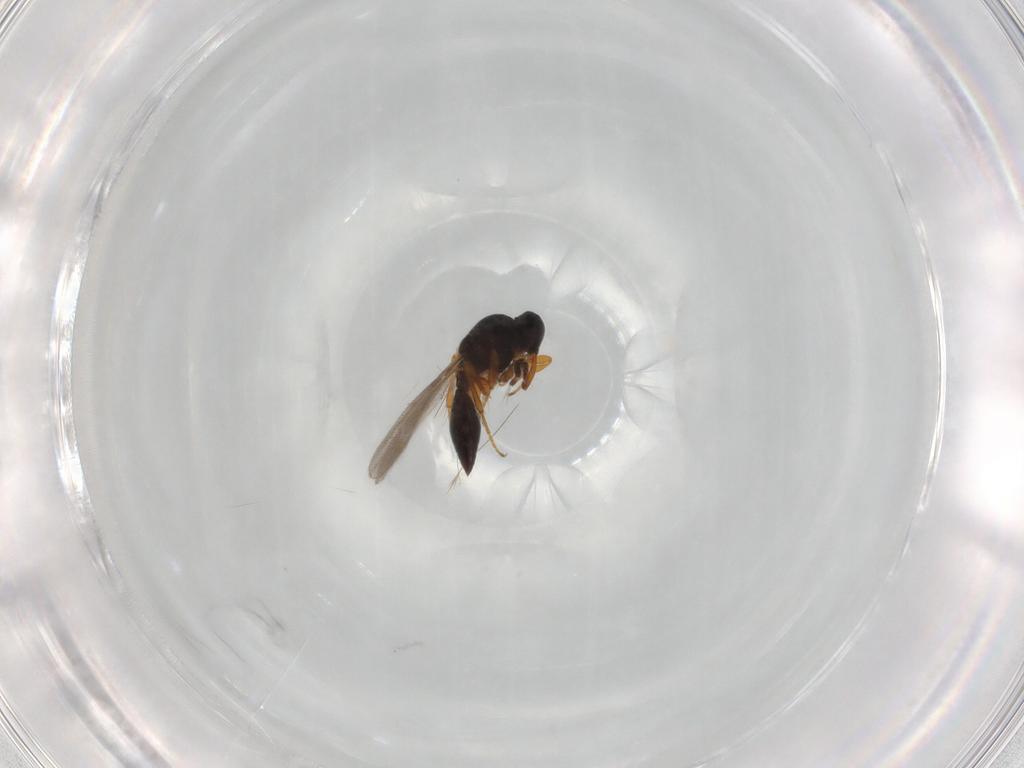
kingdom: Animalia
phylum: Arthropoda
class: Insecta
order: Hymenoptera
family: Platygastridae
